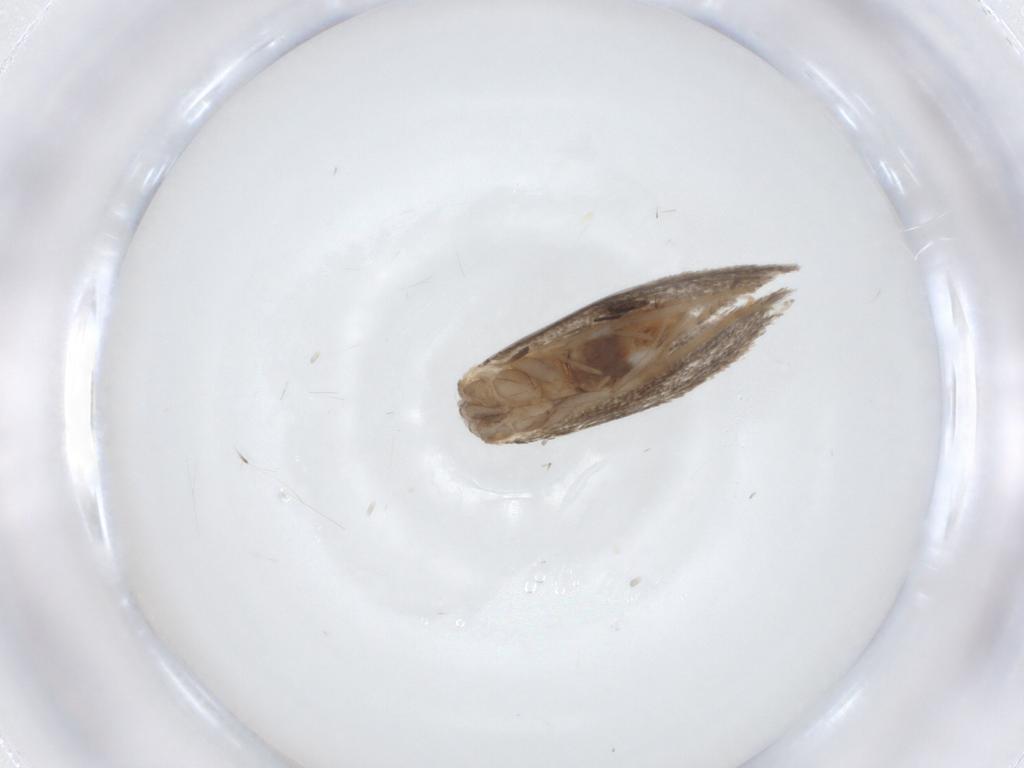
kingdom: Animalia
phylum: Arthropoda
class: Insecta
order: Lepidoptera
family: Tineidae
